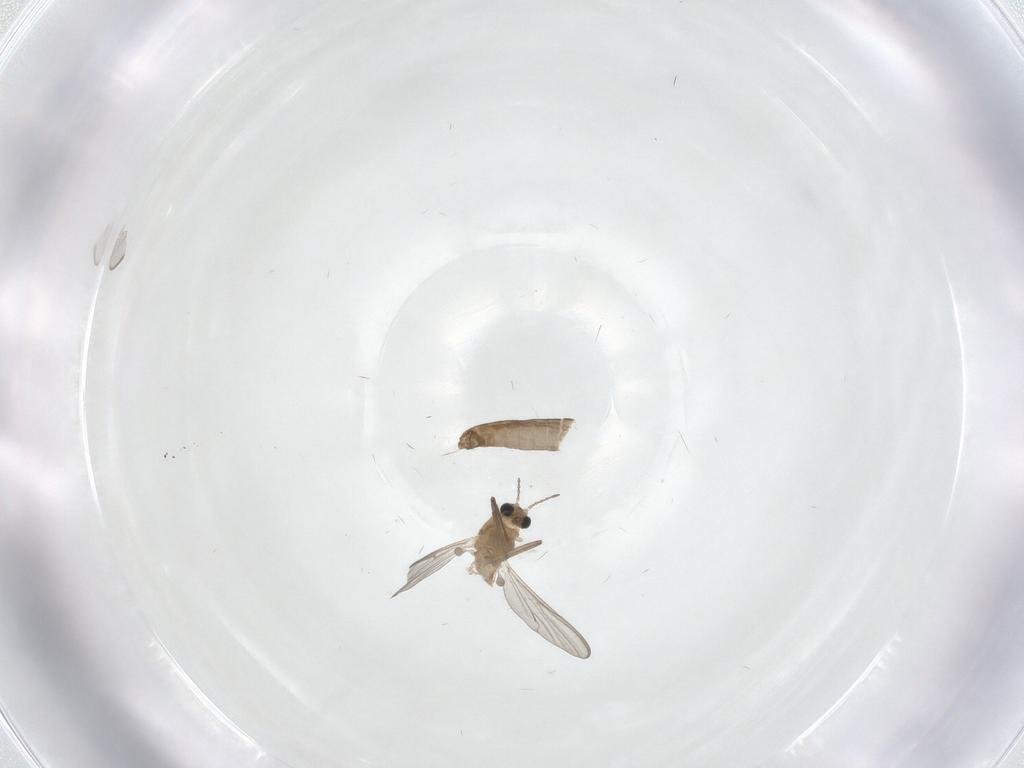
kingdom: Animalia
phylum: Arthropoda
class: Insecta
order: Diptera
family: Chironomidae
